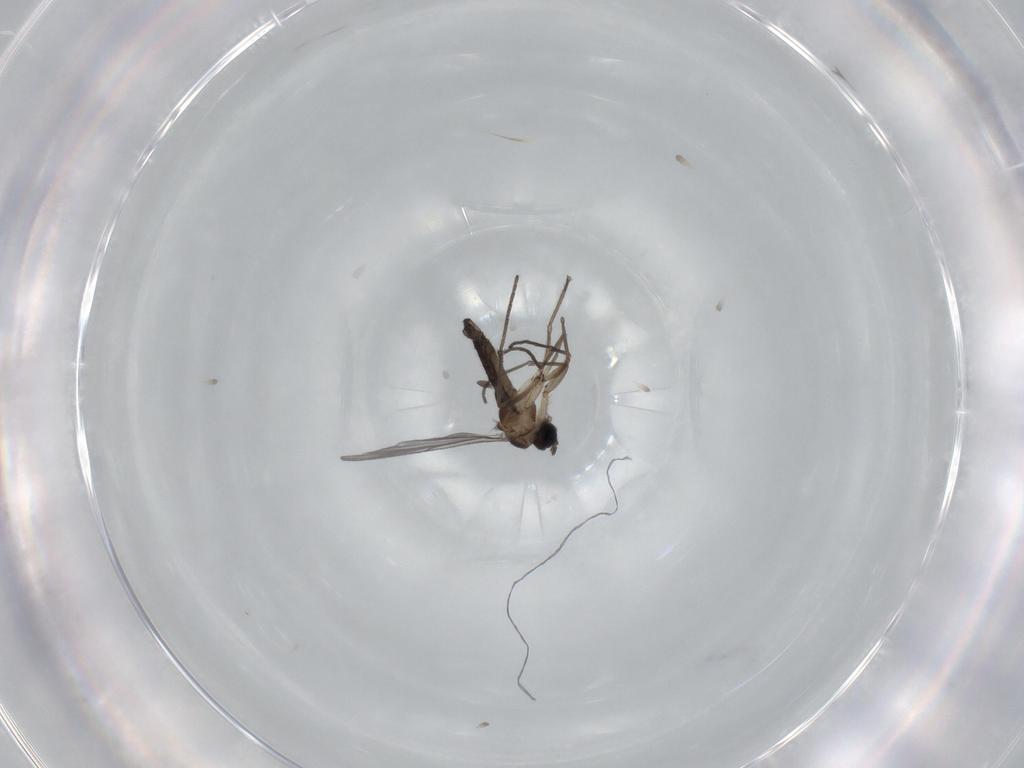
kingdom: Animalia
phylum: Arthropoda
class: Insecta
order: Diptera
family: Sciaridae
